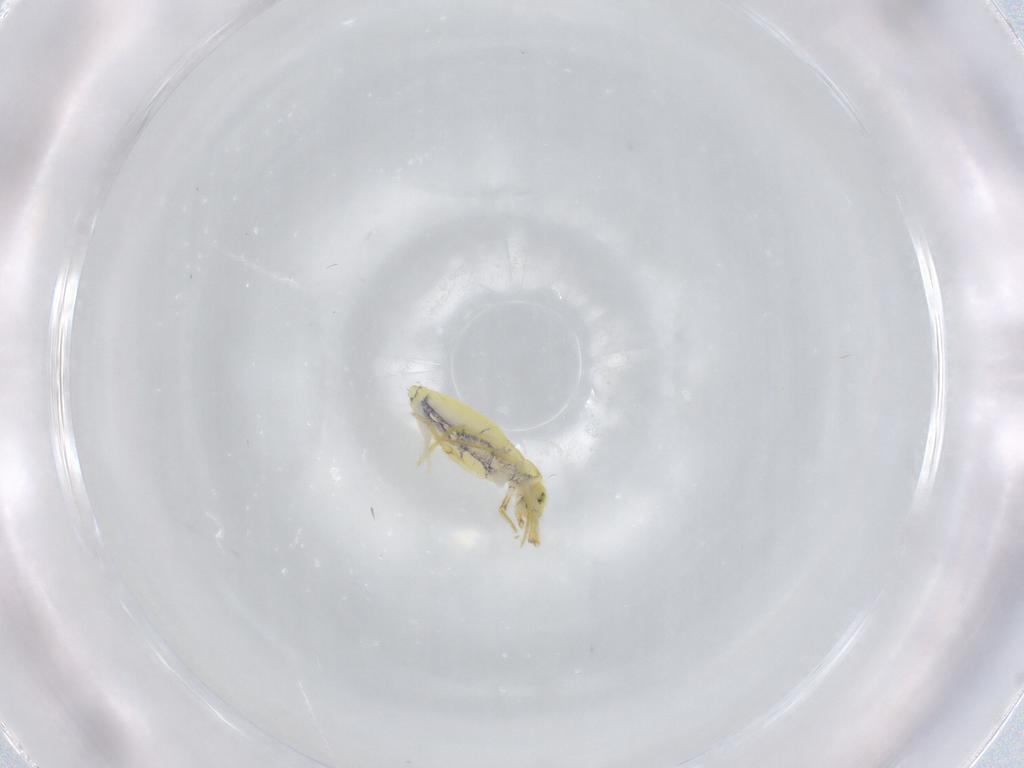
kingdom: Animalia
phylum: Arthropoda
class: Collembola
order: Entomobryomorpha
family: Entomobryidae
